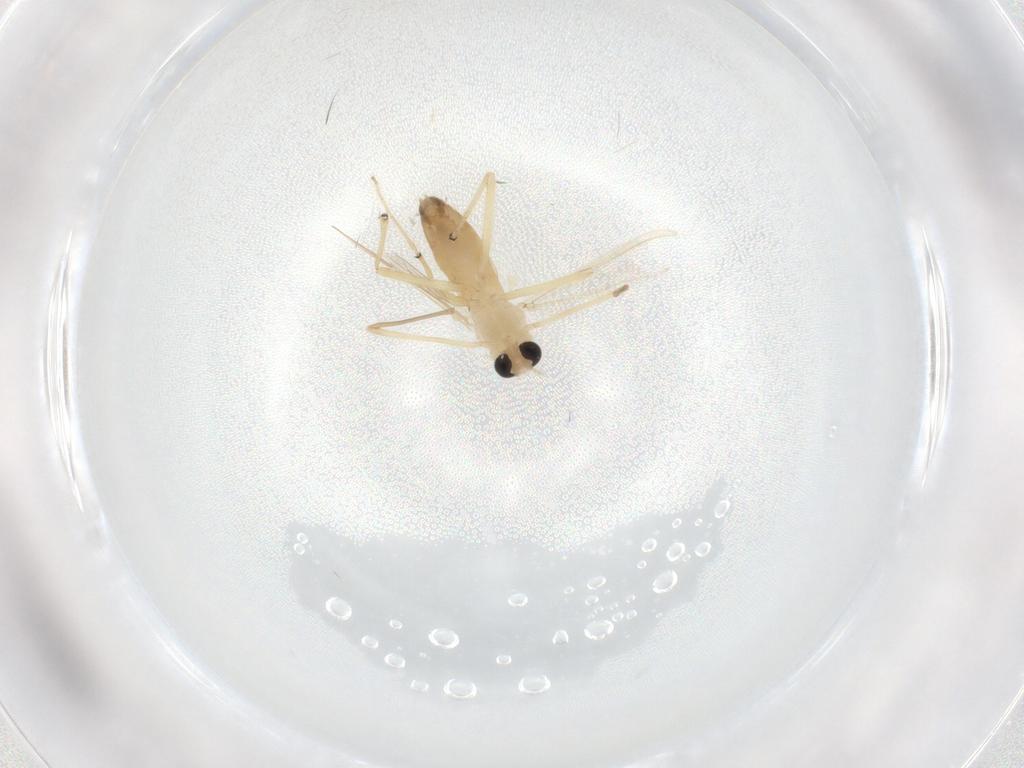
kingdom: Animalia
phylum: Arthropoda
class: Insecta
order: Diptera
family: Chironomidae
